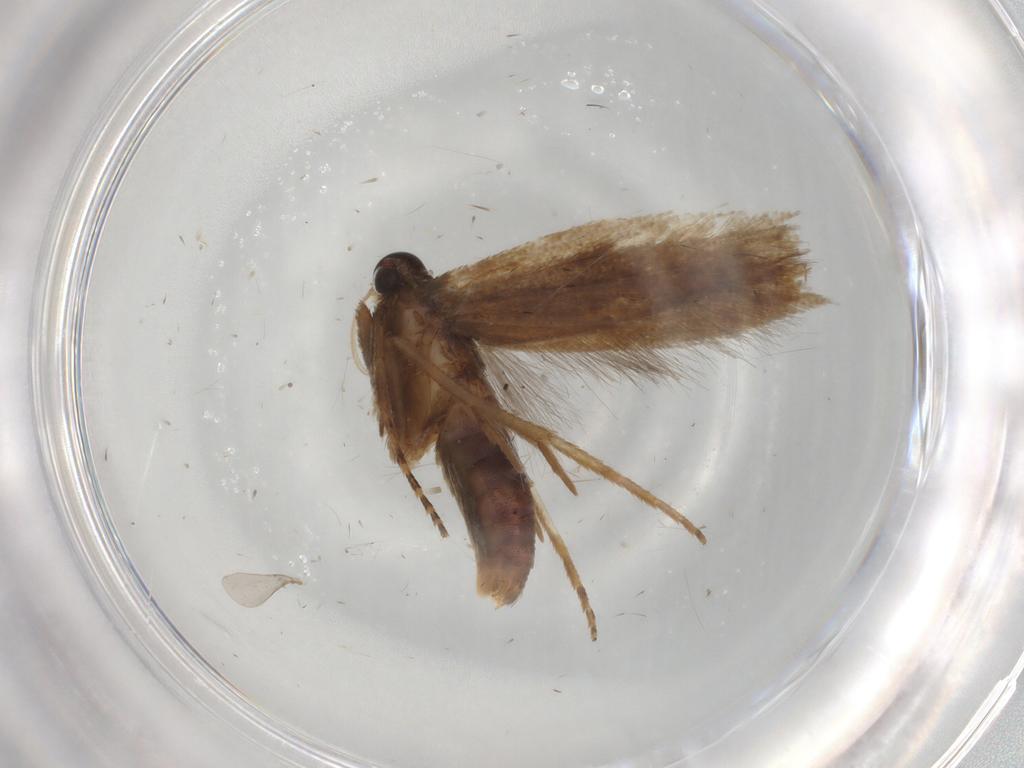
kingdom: Animalia
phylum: Arthropoda
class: Insecta
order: Lepidoptera
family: Gelechiidae
